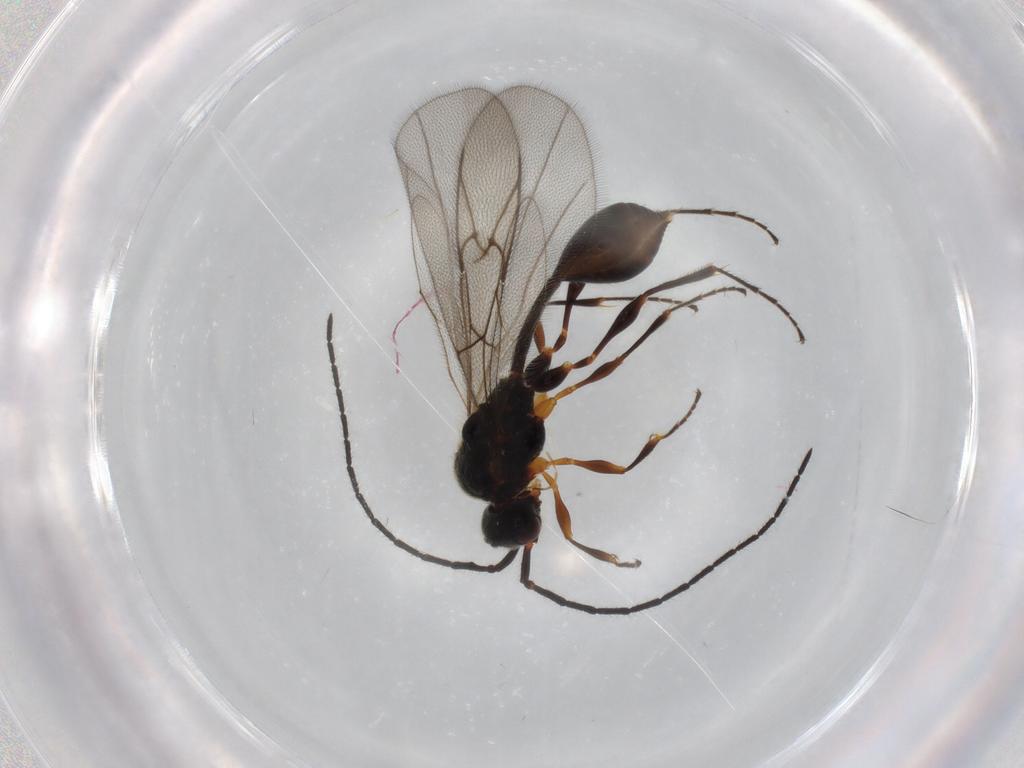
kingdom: Animalia
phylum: Arthropoda
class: Insecta
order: Hymenoptera
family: Diapriidae
